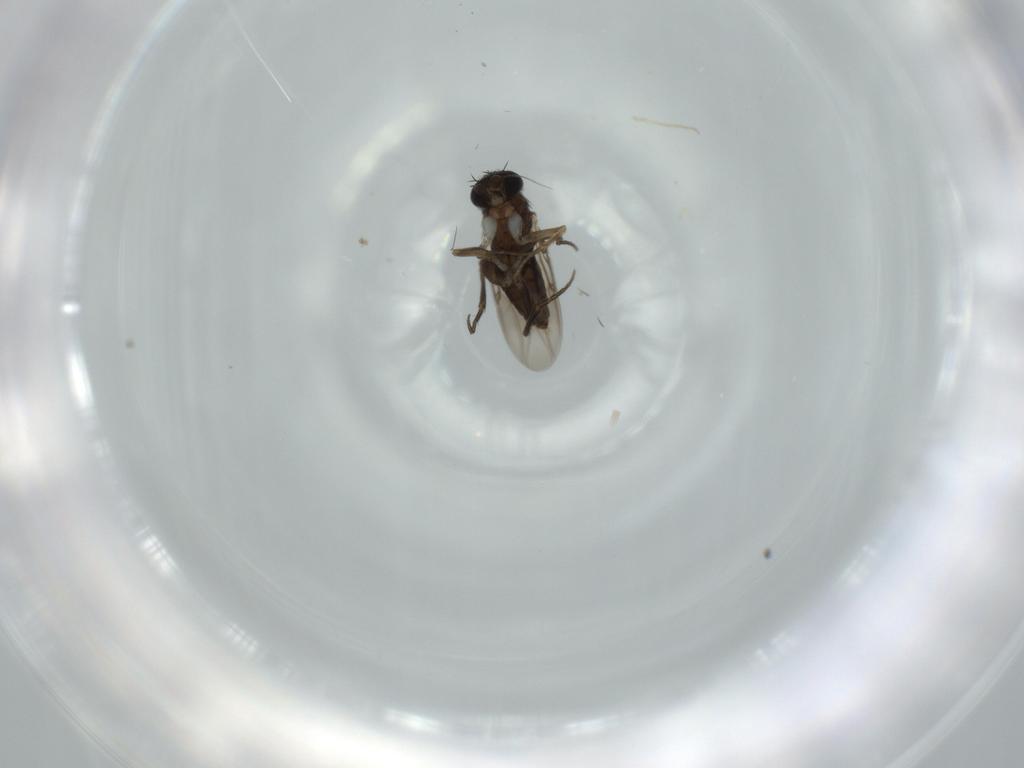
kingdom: Animalia
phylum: Arthropoda
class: Insecta
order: Diptera
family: Phoridae
